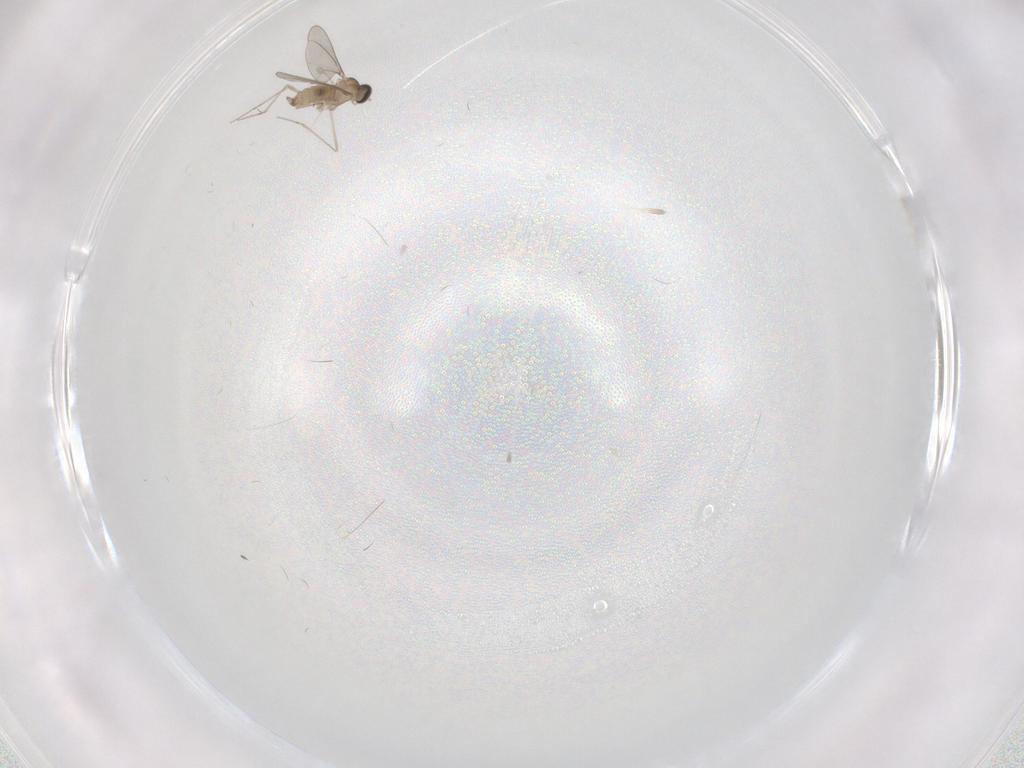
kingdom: Animalia
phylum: Arthropoda
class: Insecta
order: Diptera
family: Cecidomyiidae
